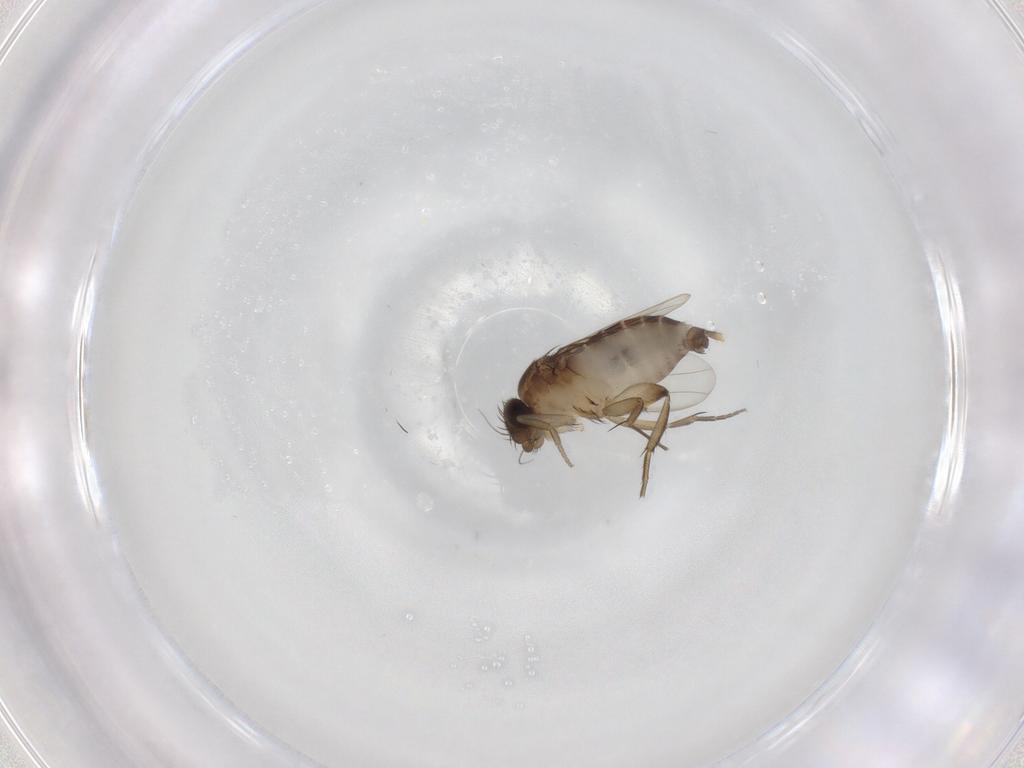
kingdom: Animalia
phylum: Arthropoda
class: Insecta
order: Diptera
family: Phoridae
